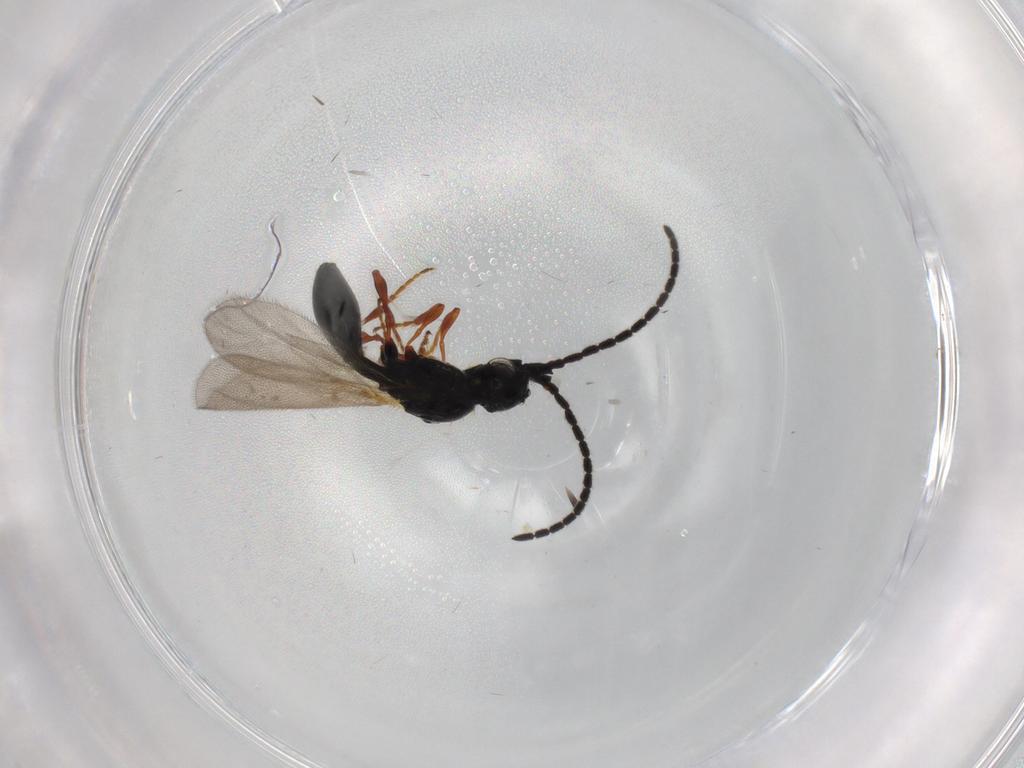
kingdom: Animalia
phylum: Arthropoda
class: Insecta
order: Hymenoptera
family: Diapriidae
